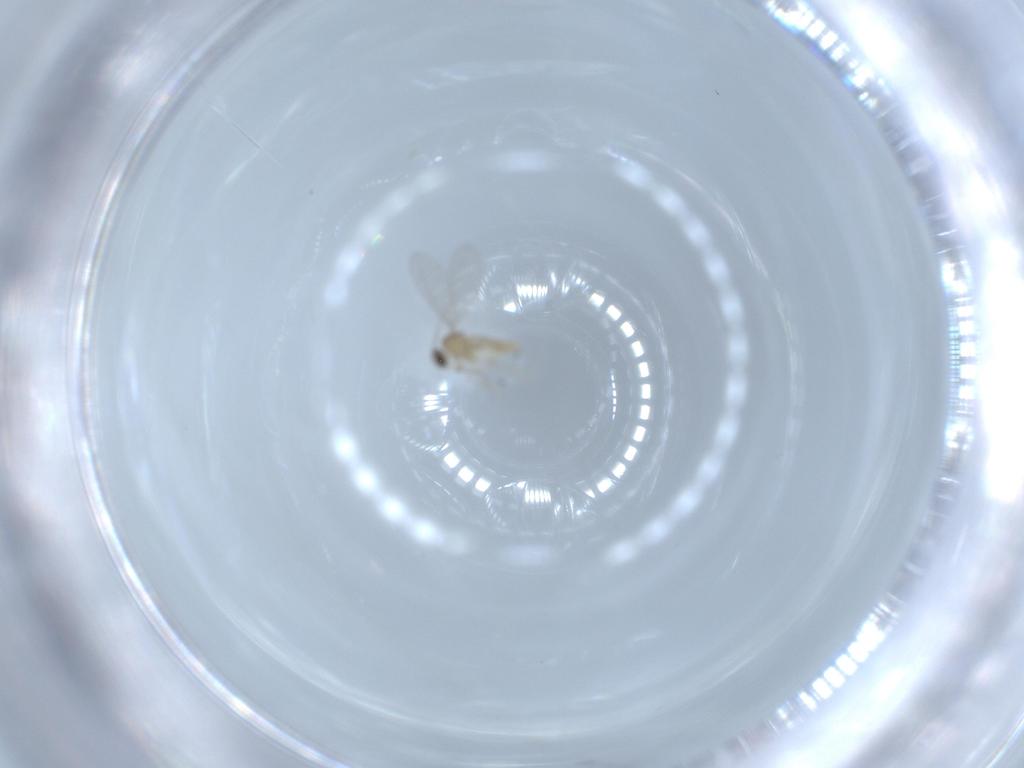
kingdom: Animalia
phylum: Arthropoda
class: Insecta
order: Diptera
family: Cecidomyiidae
